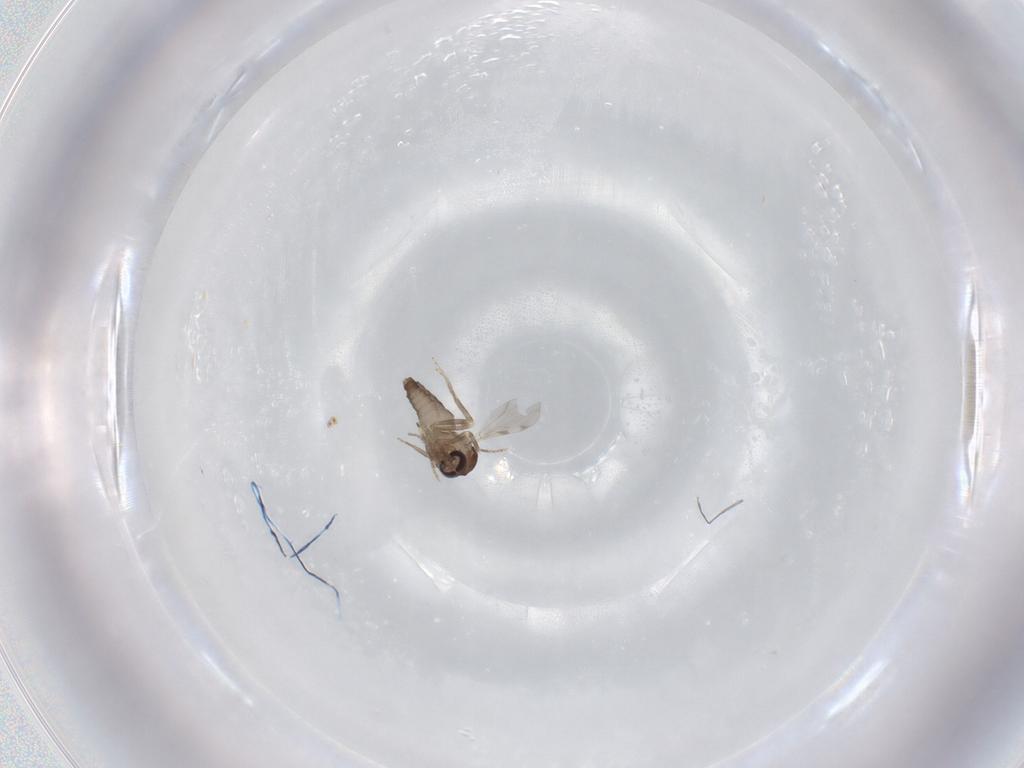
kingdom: Animalia
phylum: Arthropoda
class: Insecta
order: Diptera
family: Ceratopogonidae
